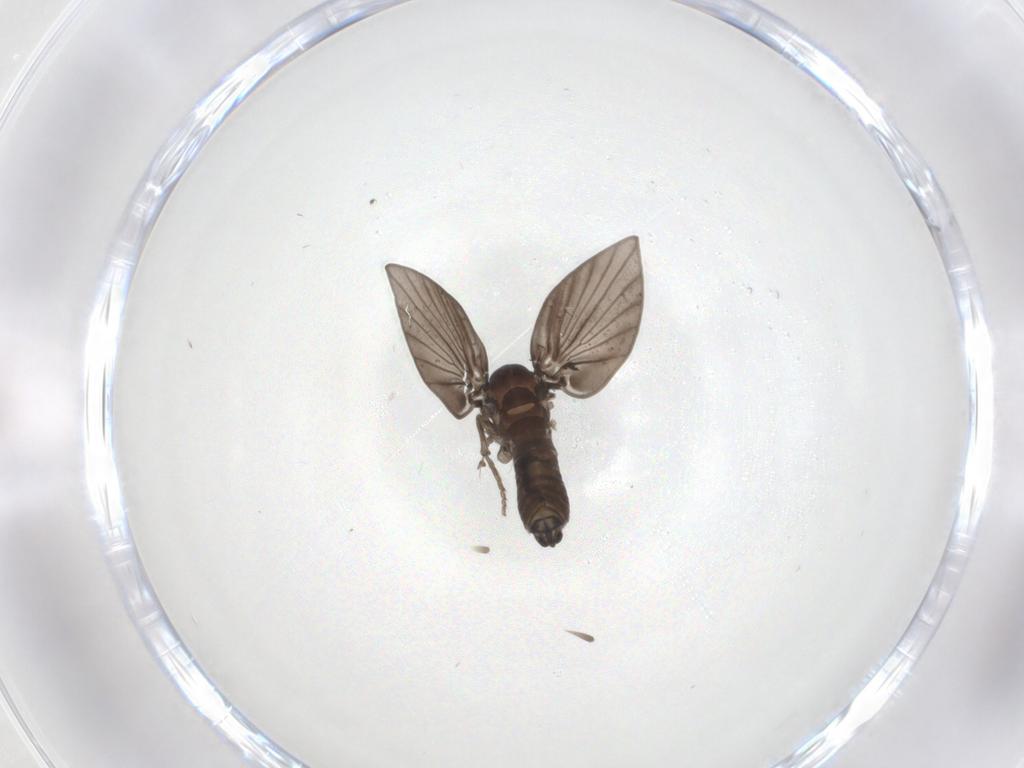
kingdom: Animalia
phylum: Arthropoda
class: Insecta
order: Diptera
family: Psychodidae
